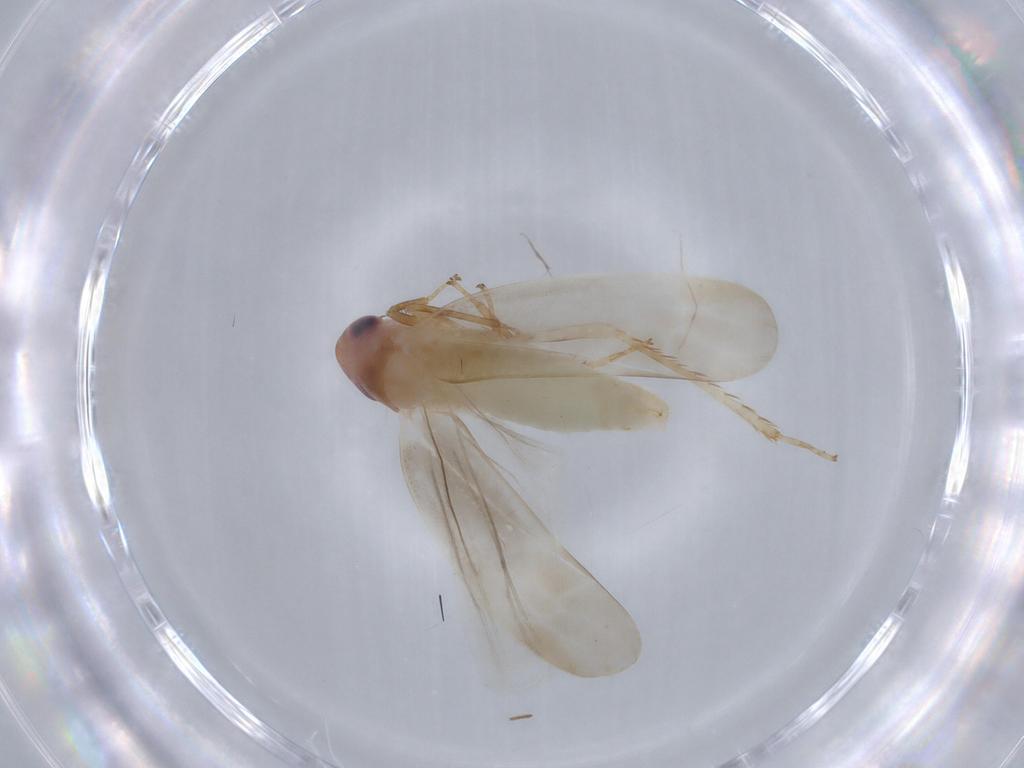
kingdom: Animalia
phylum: Arthropoda
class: Insecta
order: Hemiptera
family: Cicadellidae
